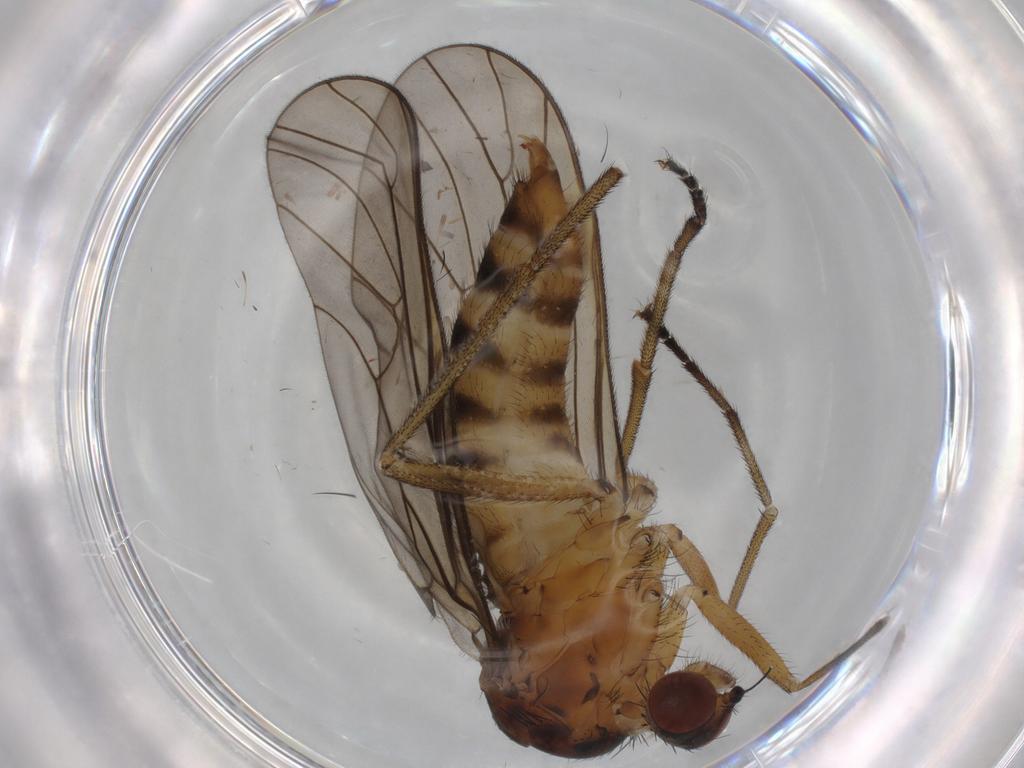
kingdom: Animalia
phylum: Arthropoda
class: Insecta
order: Diptera
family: Brachystomatidae
